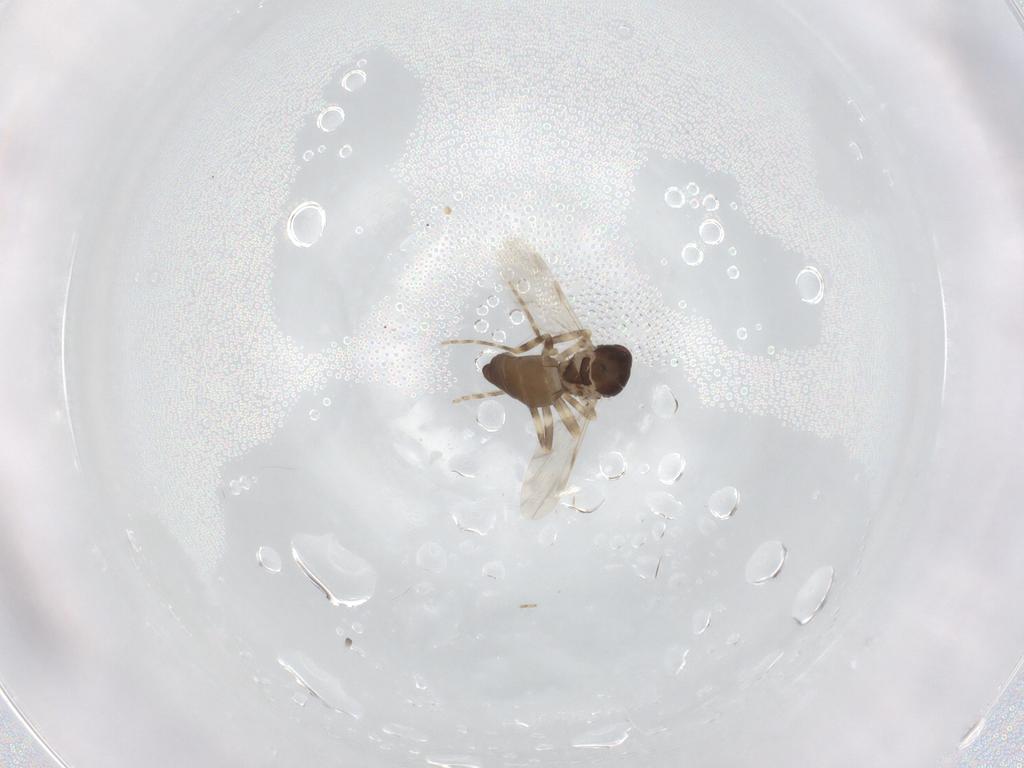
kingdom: Animalia
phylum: Arthropoda
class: Insecta
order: Diptera
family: Ceratopogonidae
